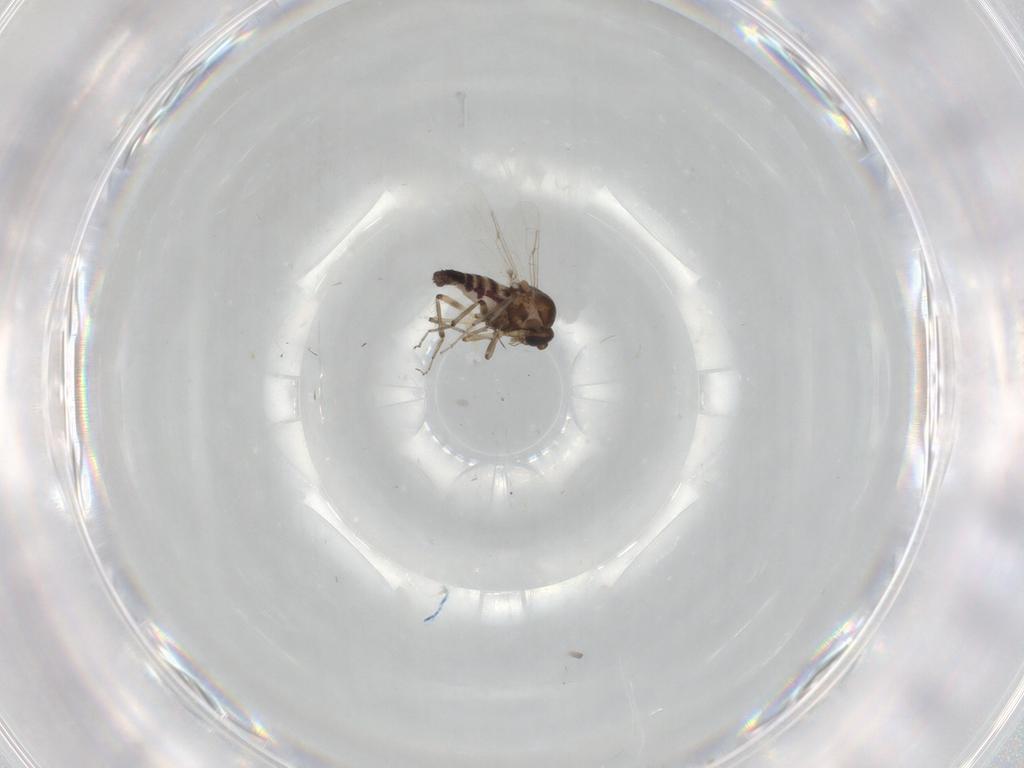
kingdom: Animalia
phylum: Arthropoda
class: Insecta
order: Diptera
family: Ceratopogonidae
